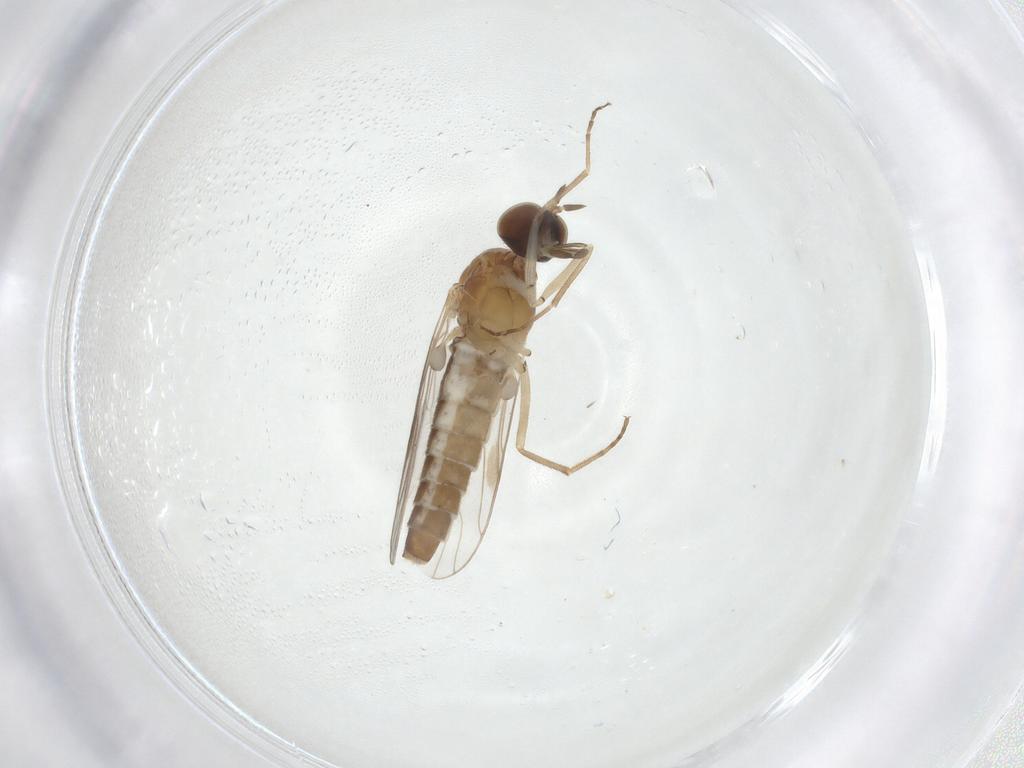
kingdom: Animalia
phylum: Arthropoda
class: Insecta
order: Diptera
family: Scenopinidae
